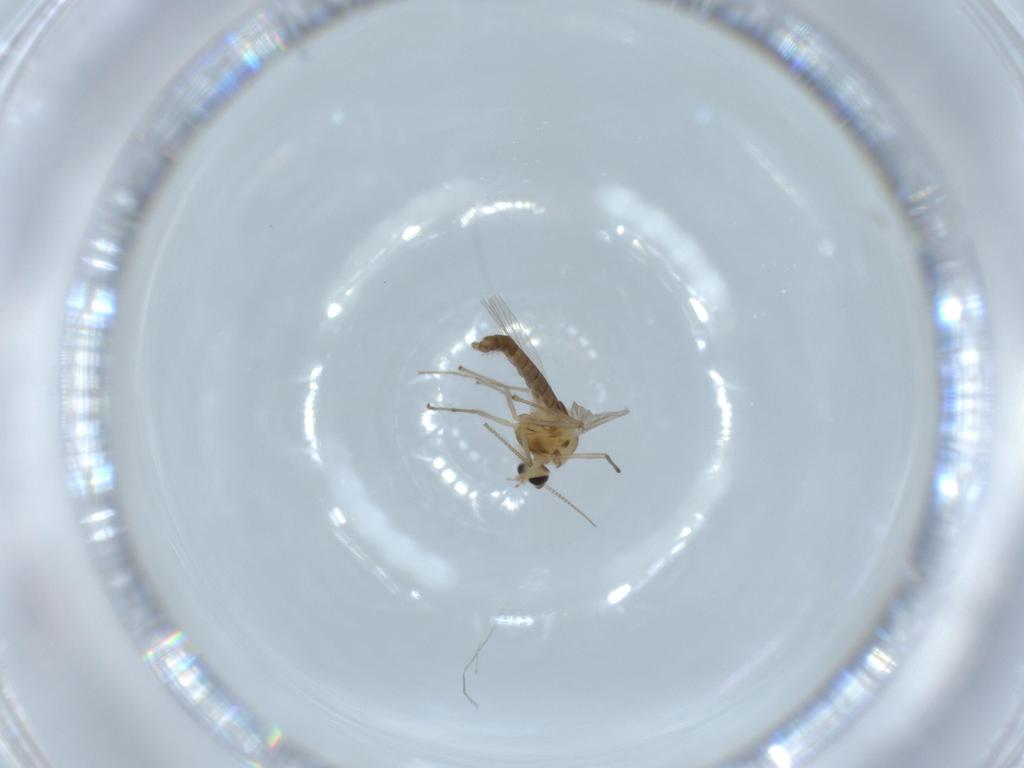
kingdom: Animalia
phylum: Arthropoda
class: Insecta
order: Diptera
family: Chironomidae
